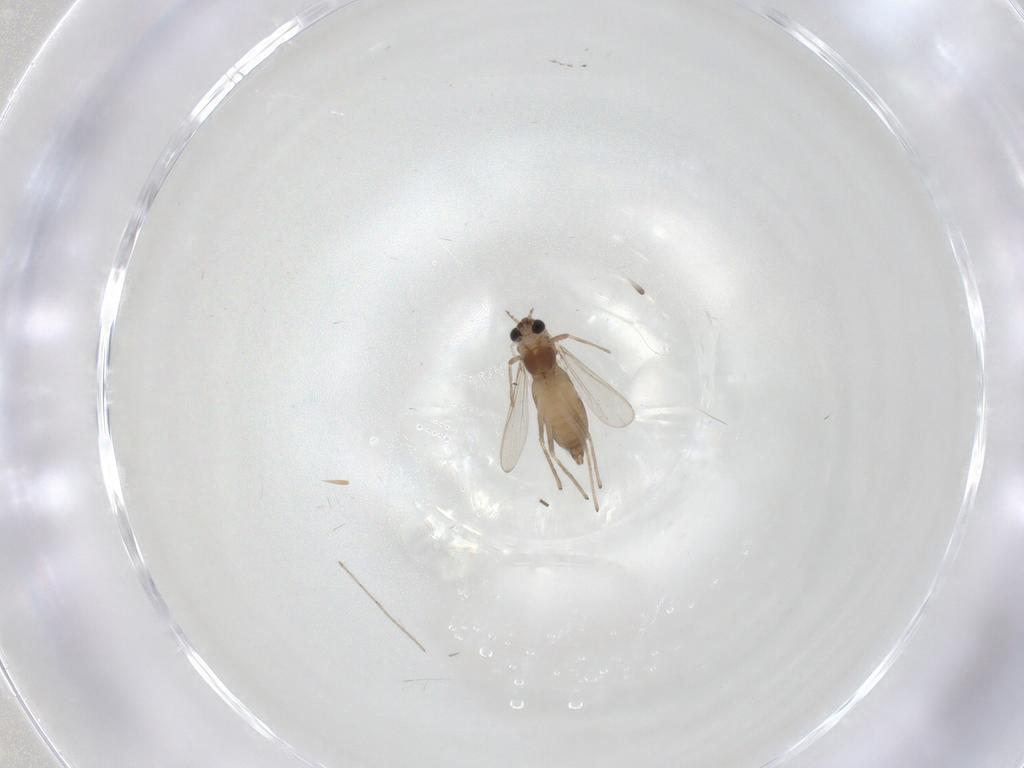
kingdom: Animalia
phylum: Arthropoda
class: Insecta
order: Diptera
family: Chironomidae
